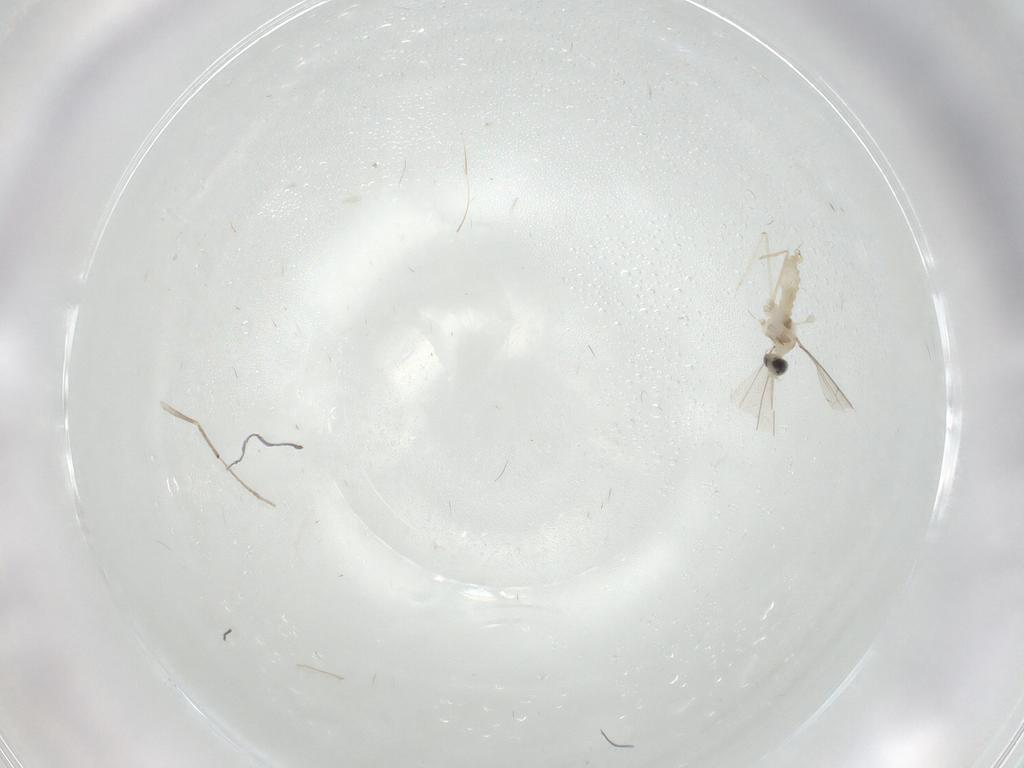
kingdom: Animalia
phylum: Arthropoda
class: Insecta
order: Diptera
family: Cecidomyiidae
